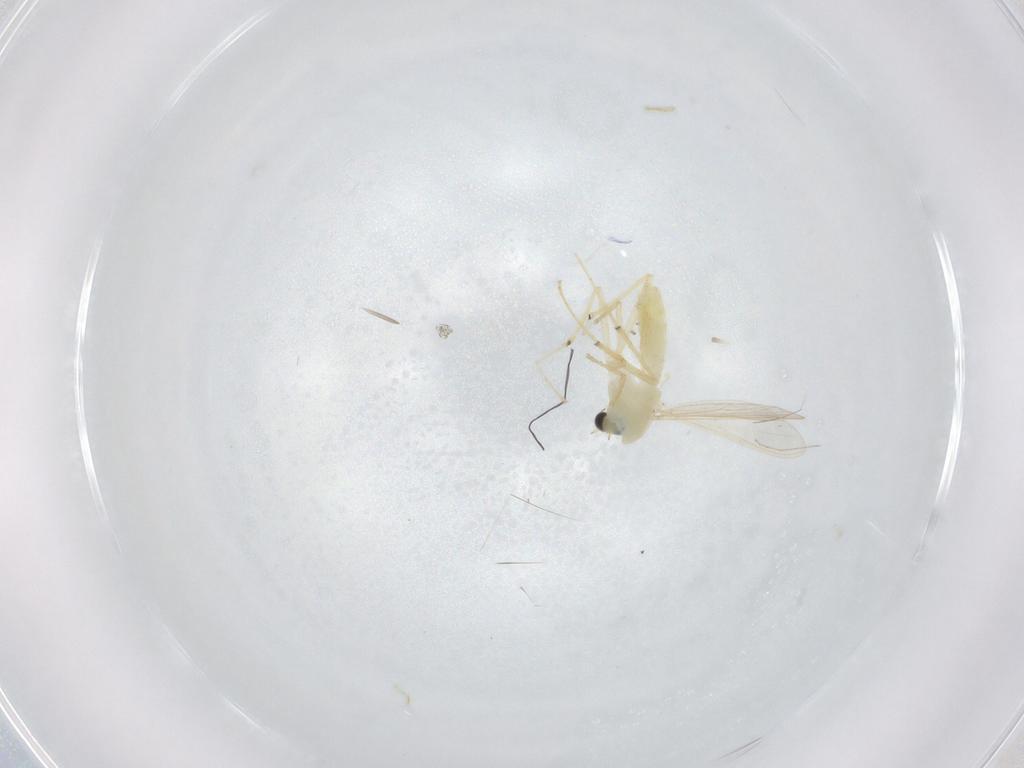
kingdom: Animalia
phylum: Arthropoda
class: Insecta
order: Diptera
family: Chironomidae
